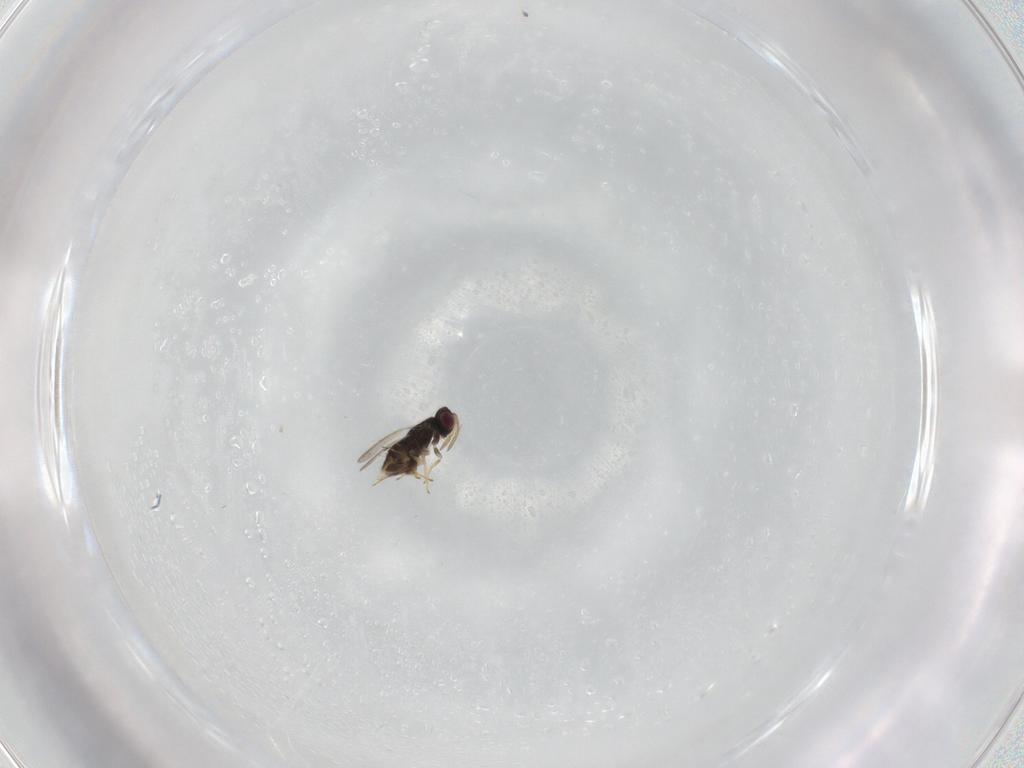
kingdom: Animalia
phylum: Arthropoda
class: Insecta
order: Hymenoptera
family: Aphelinidae
